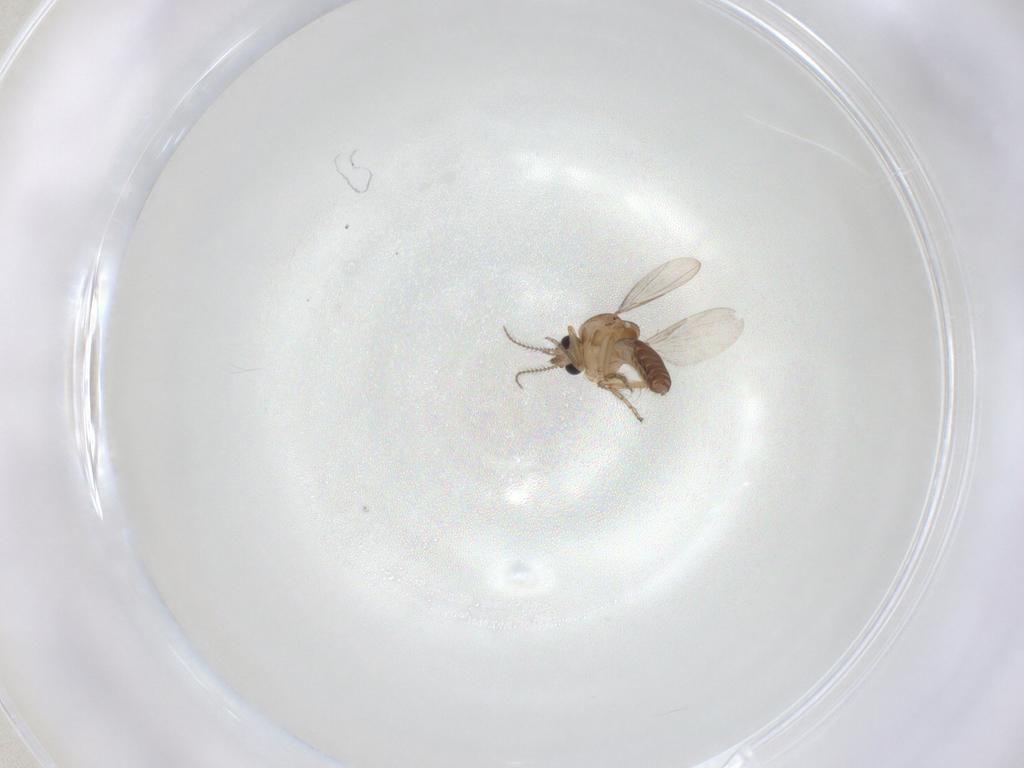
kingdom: Animalia
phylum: Arthropoda
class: Insecta
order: Diptera
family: Ceratopogonidae
